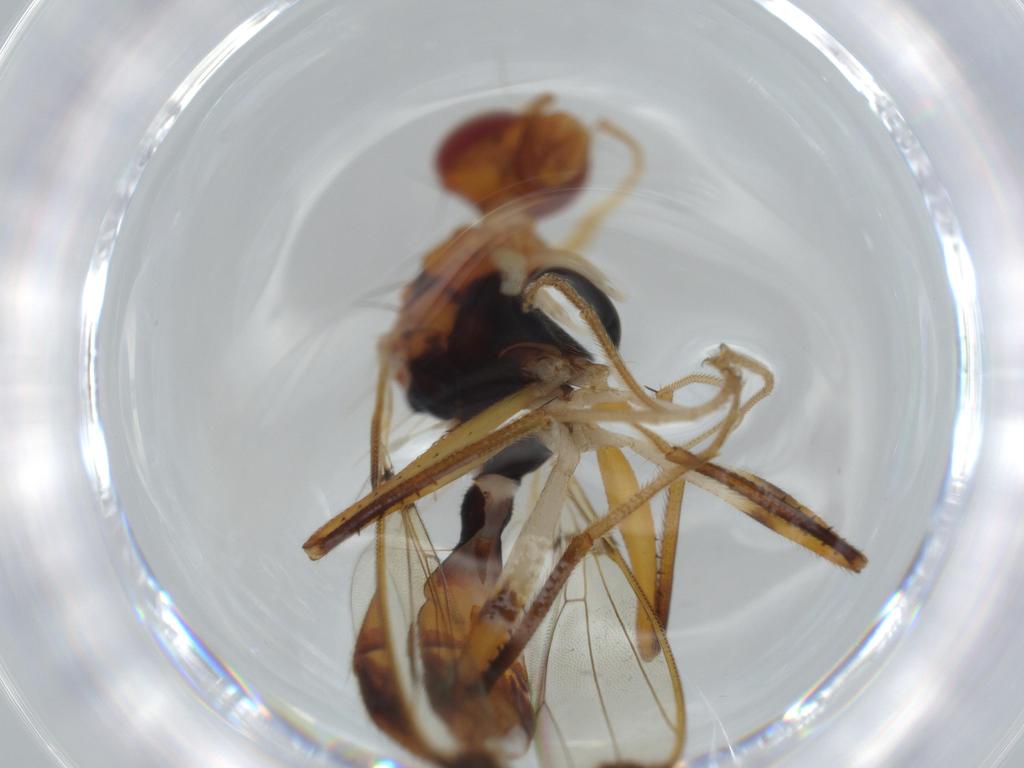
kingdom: Animalia
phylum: Arthropoda
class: Insecta
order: Diptera
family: Richardiidae
